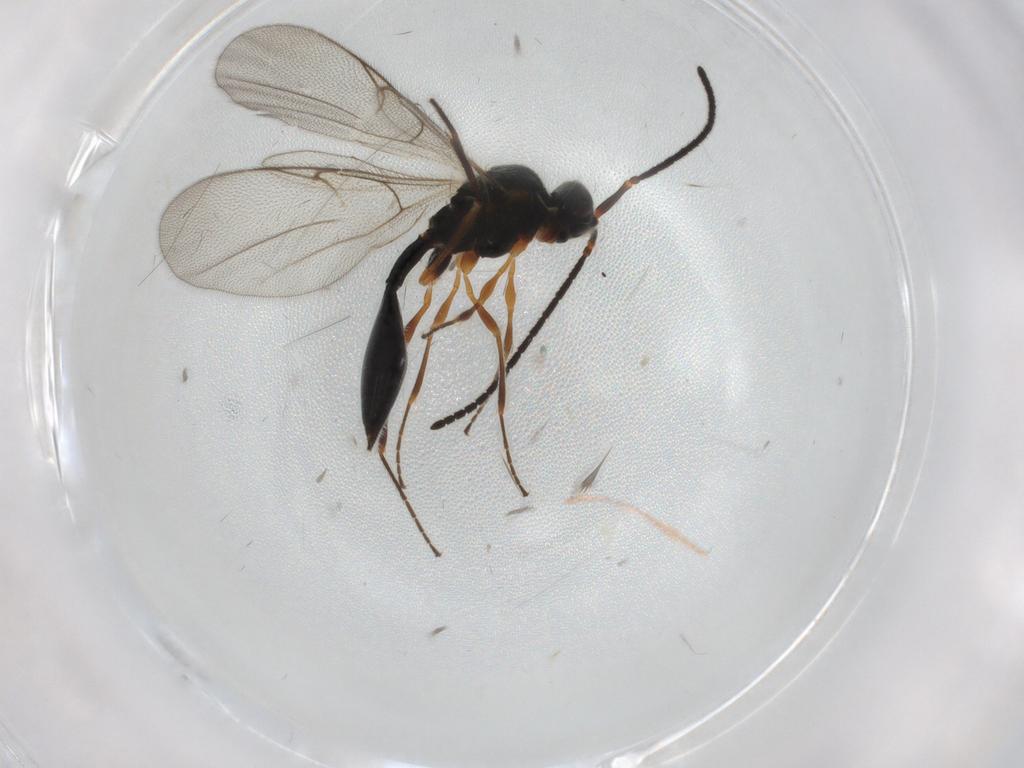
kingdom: Animalia
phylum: Arthropoda
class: Insecta
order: Hymenoptera
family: Diapriidae
